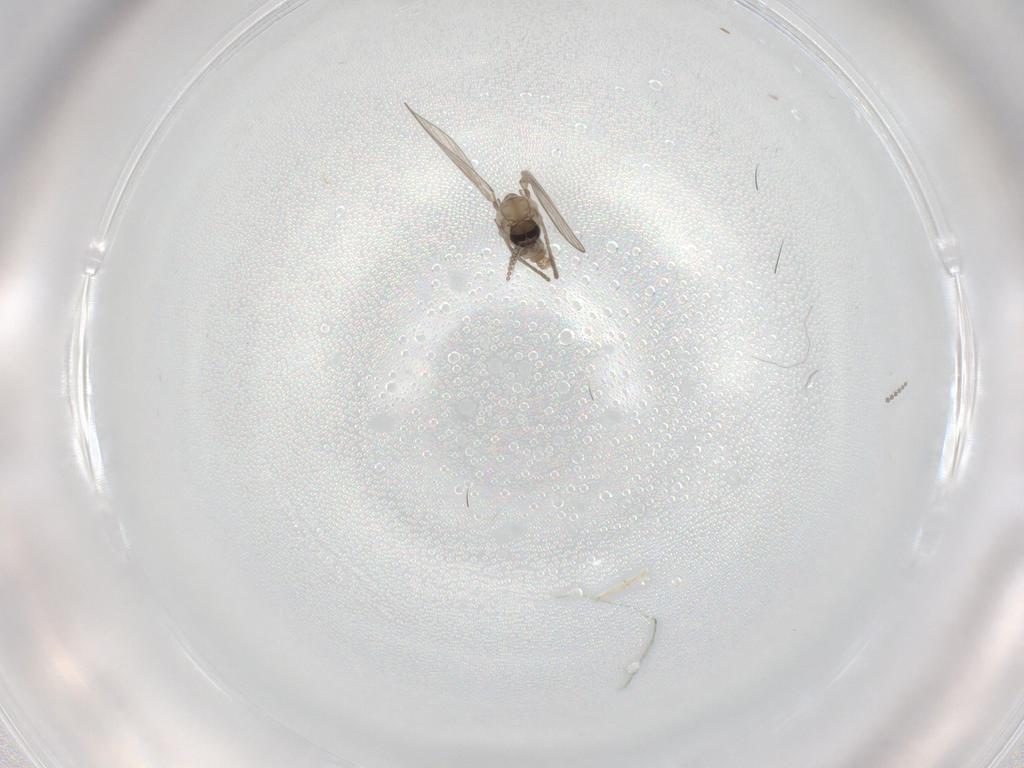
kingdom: Animalia
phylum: Arthropoda
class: Insecta
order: Diptera
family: Psychodidae
